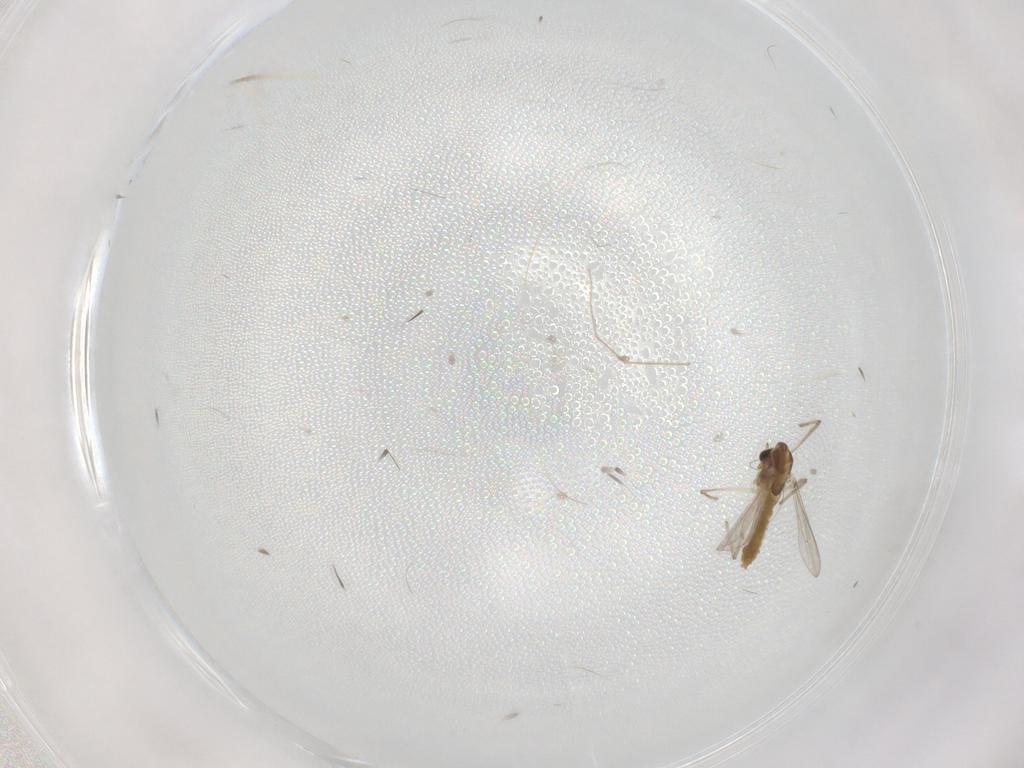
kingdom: Animalia
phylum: Arthropoda
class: Insecta
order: Diptera
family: Chironomidae
